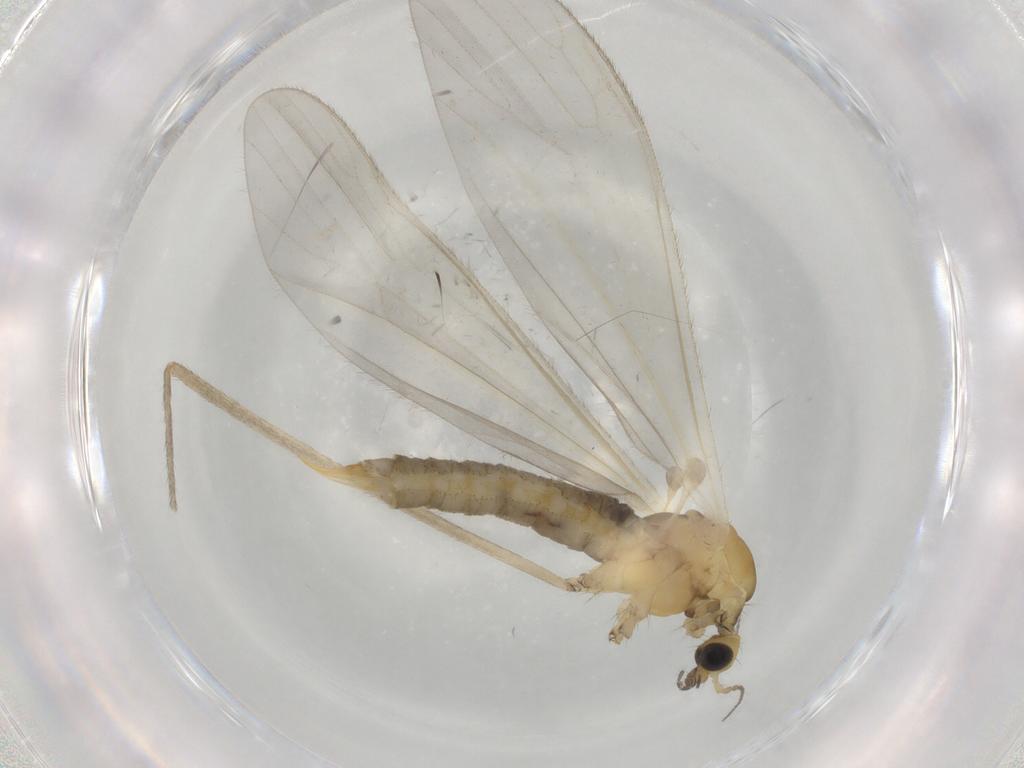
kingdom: Animalia
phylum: Arthropoda
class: Insecta
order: Diptera
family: Limoniidae
